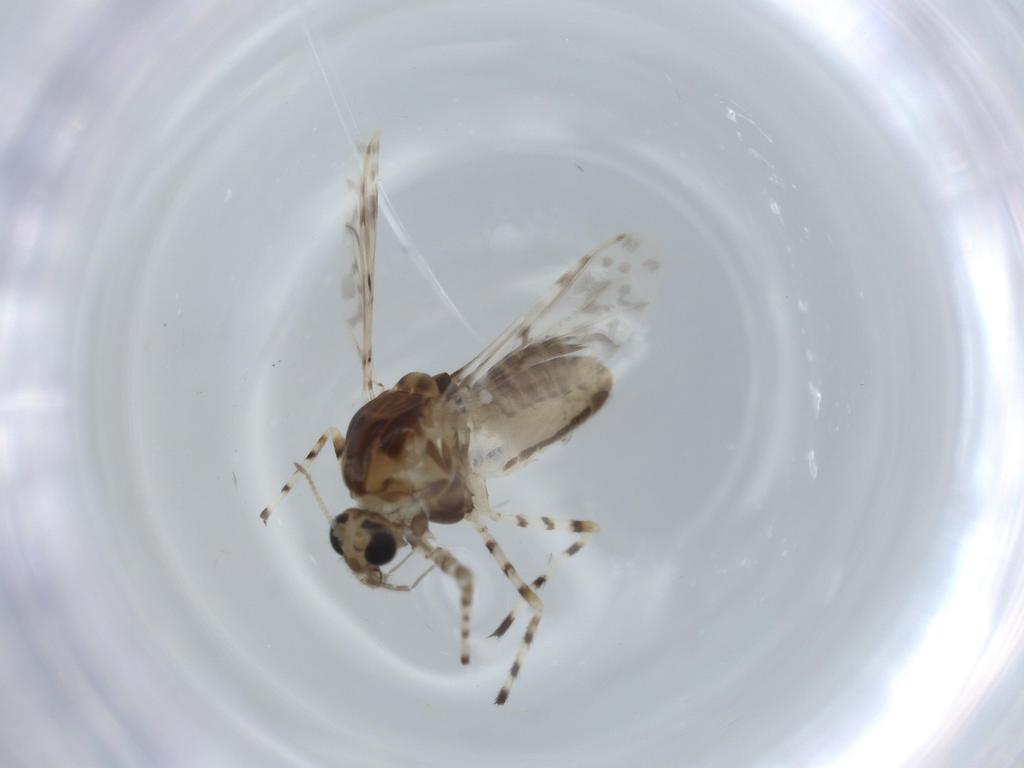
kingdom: Animalia
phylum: Arthropoda
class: Insecta
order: Diptera
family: Chironomidae
